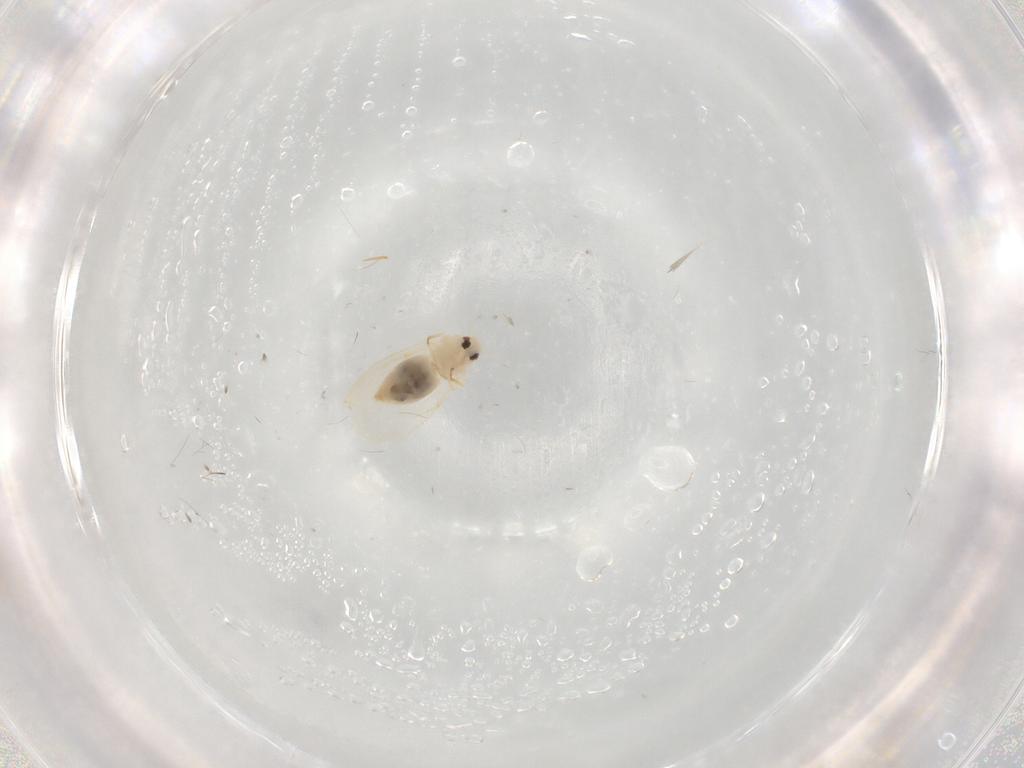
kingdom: Animalia
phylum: Arthropoda
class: Insecta
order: Hemiptera
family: Aleyrodidae
